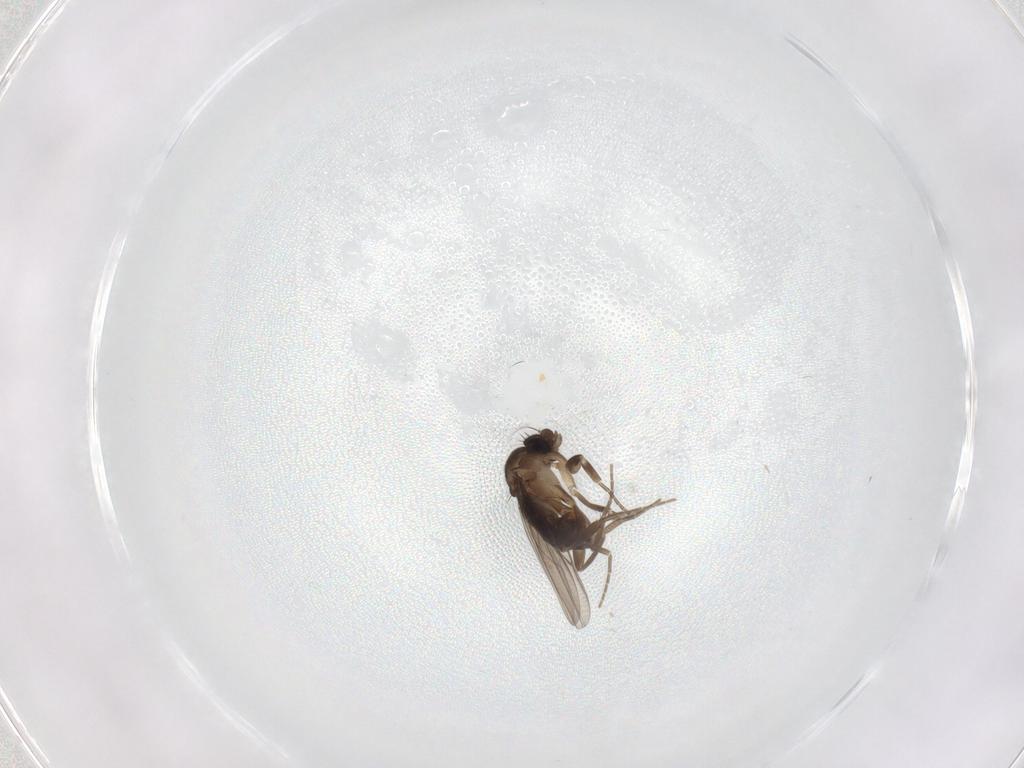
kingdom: Animalia
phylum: Arthropoda
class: Insecta
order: Diptera
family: Phoridae
